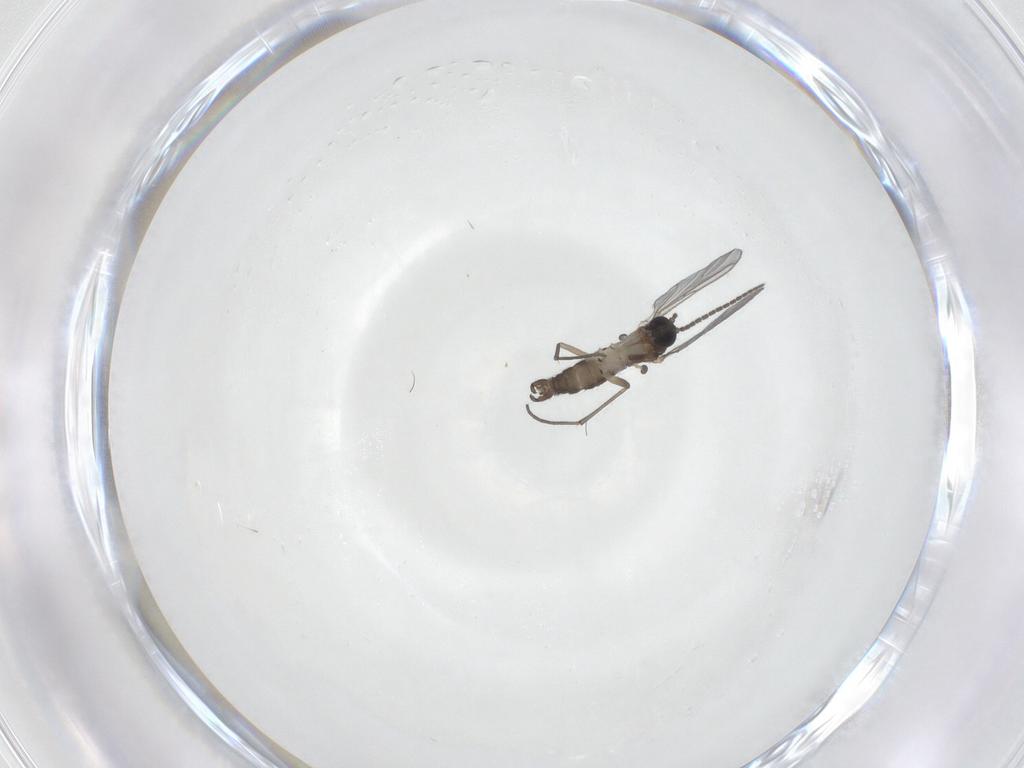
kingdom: Animalia
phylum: Arthropoda
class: Insecta
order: Diptera
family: Sciaridae
